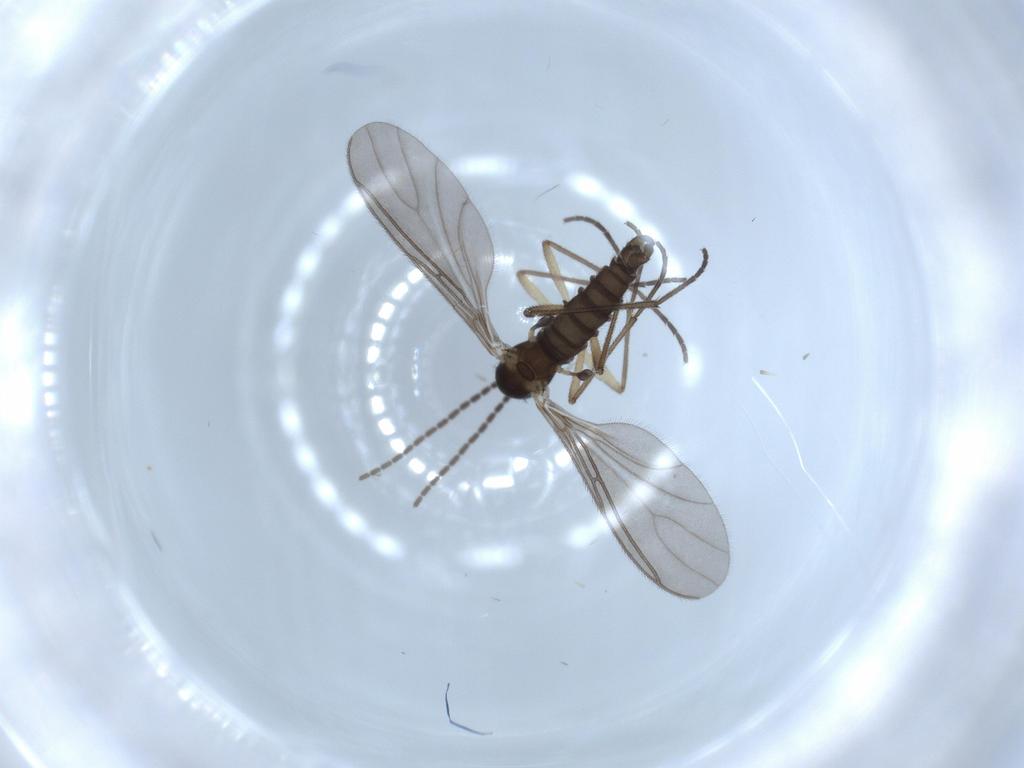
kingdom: Animalia
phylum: Arthropoda
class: Insecta
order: Diptera
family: Sciaridae
